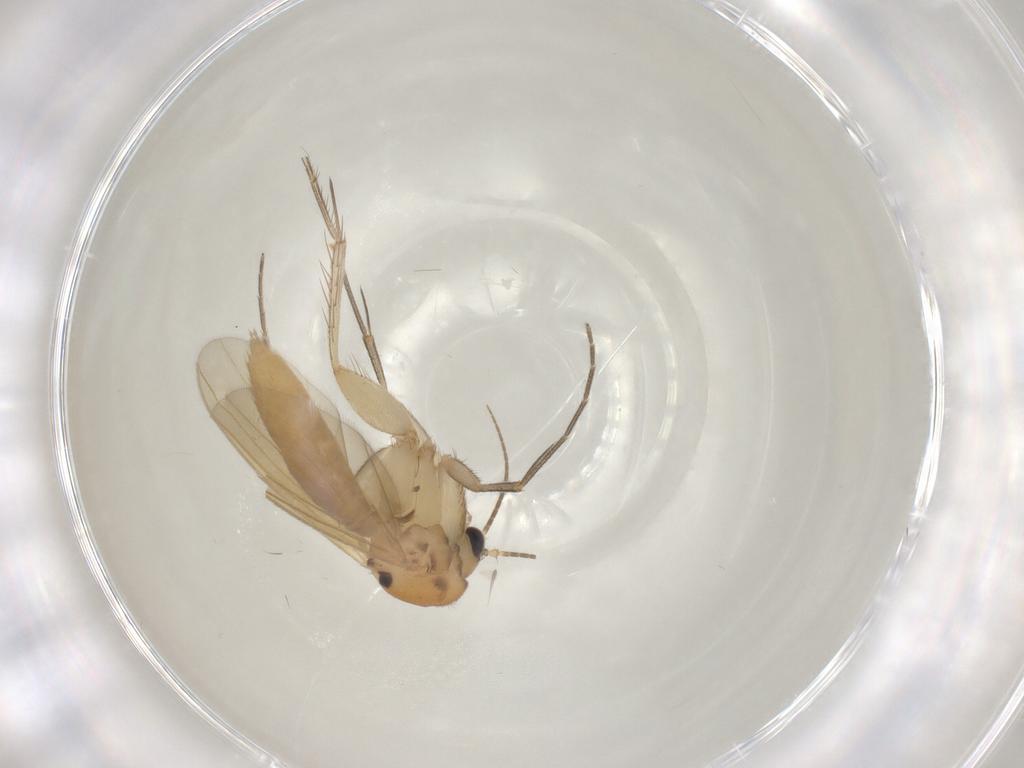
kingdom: Animalia
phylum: Arthropoda
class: Insecta
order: Diptera
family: Mycetophilidae
